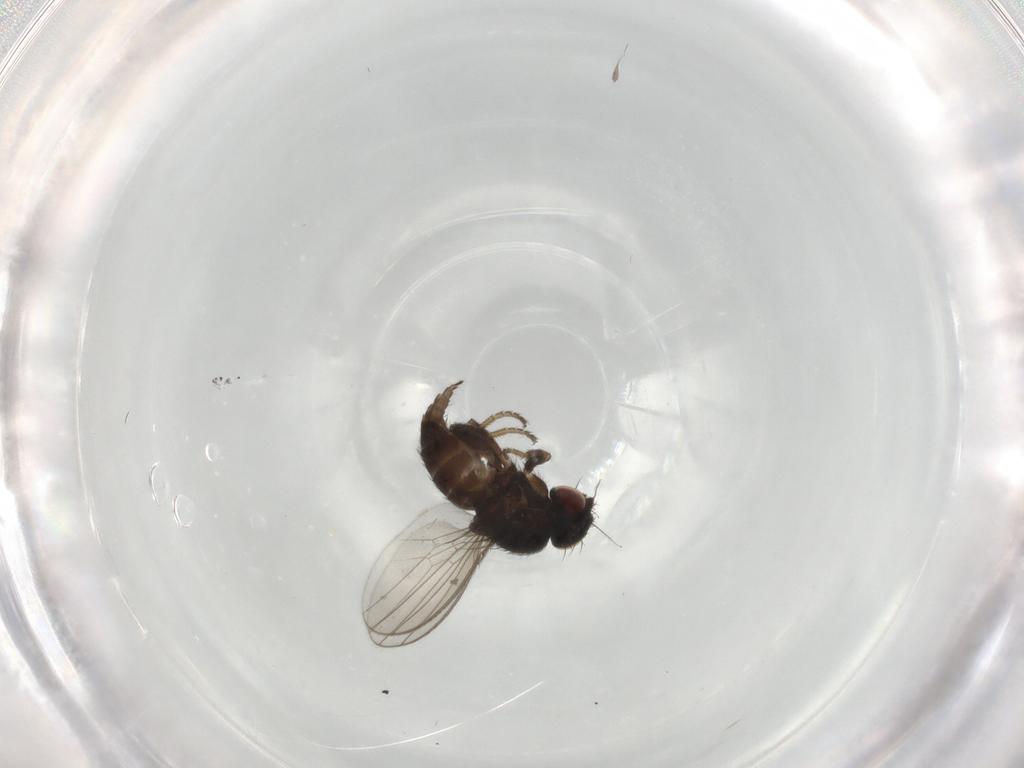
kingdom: Animalia
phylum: Arthropoda
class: Insecta
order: Diptera
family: Milichiidae
